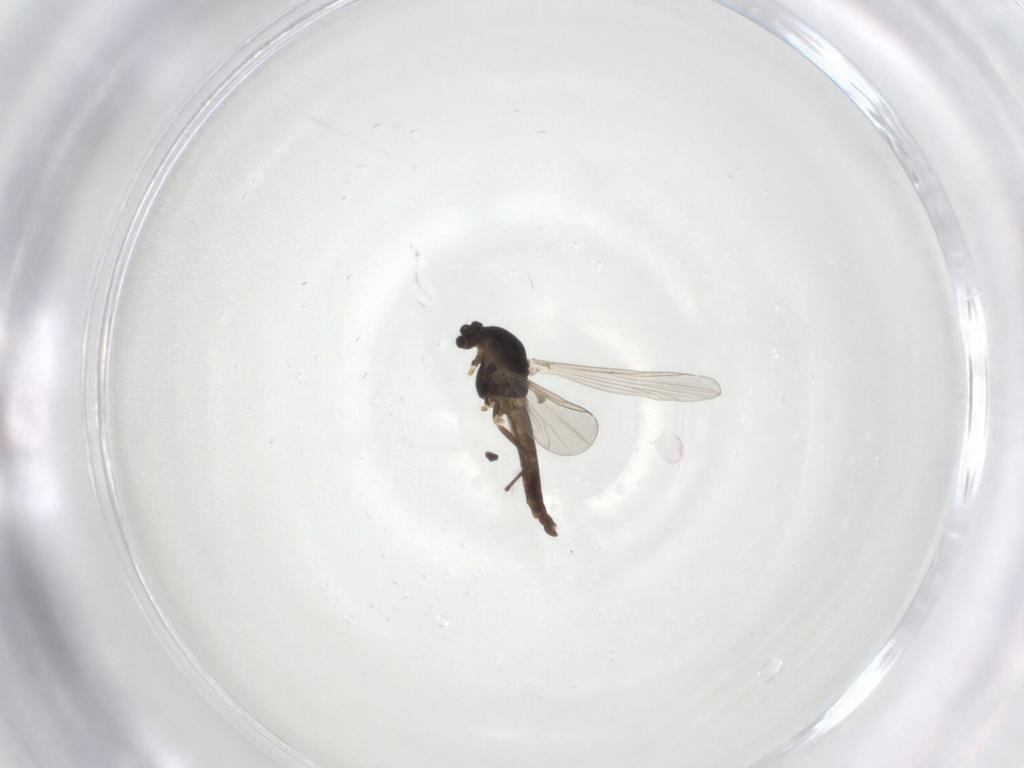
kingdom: Animalia
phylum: Arthropoda
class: Insecta
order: Diptera
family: Chironomidae
